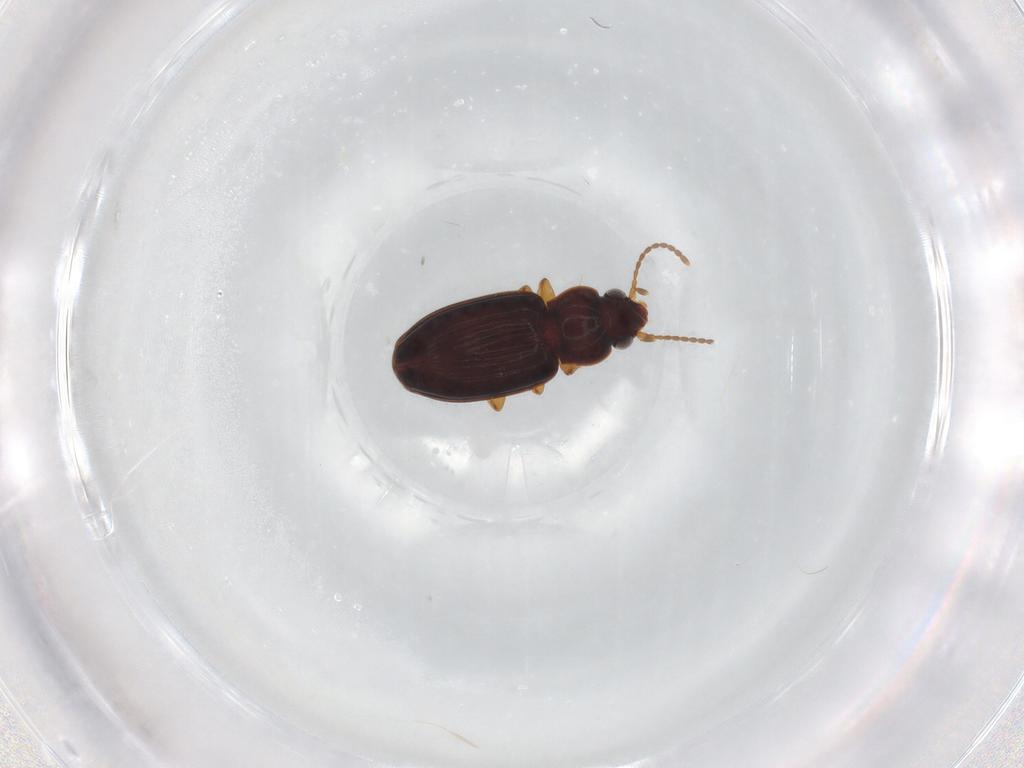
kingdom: Animalia
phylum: Arthropoda
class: Insecta
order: Coleoptera
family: Carabidae
